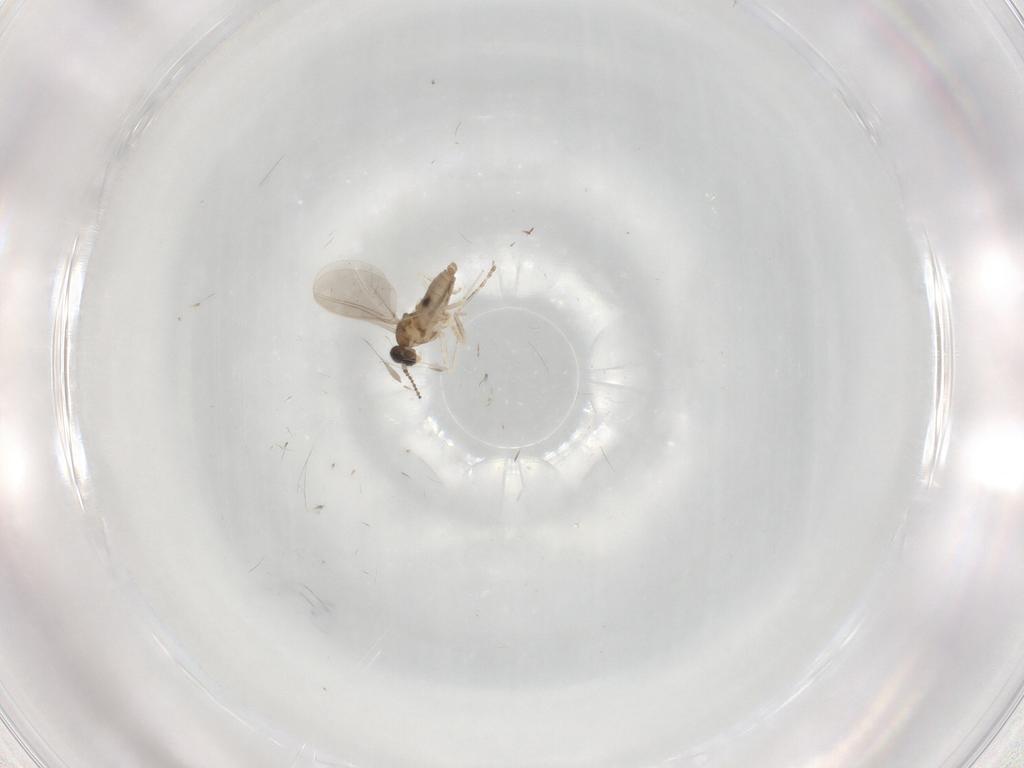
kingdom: Animalia
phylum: Arthropoda
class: Insecta
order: Diptera
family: Cecidomyiidae
